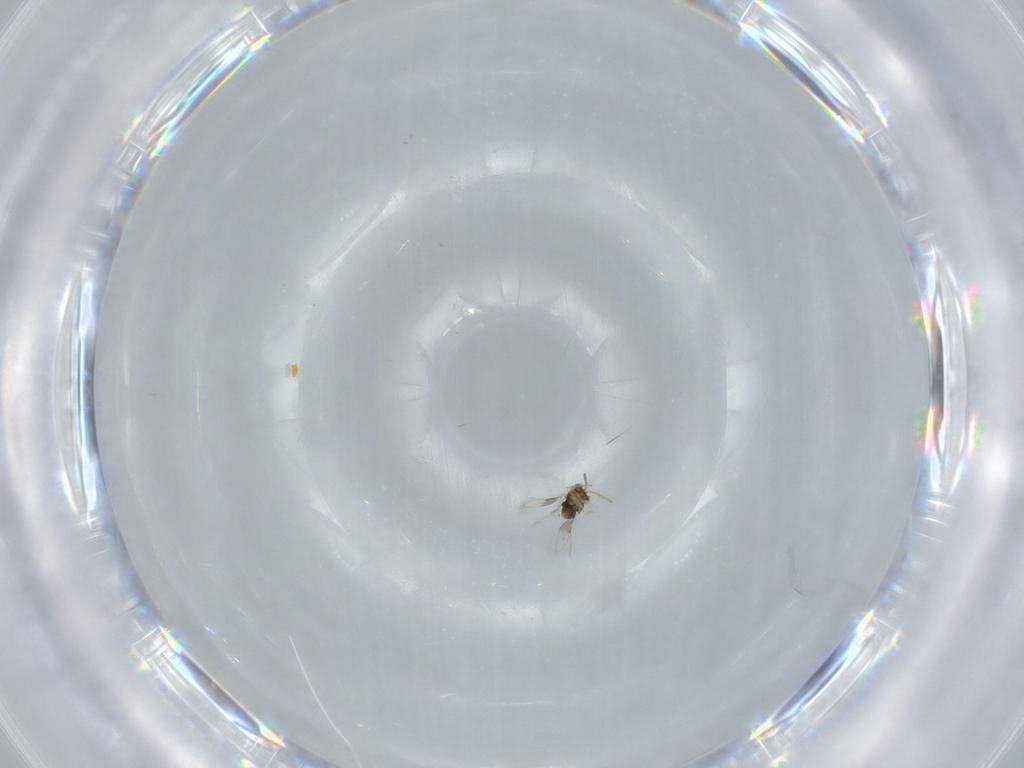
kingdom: Animalia
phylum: Arthropoda
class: Insecta
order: Hymenoptera
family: Aphelinidae
